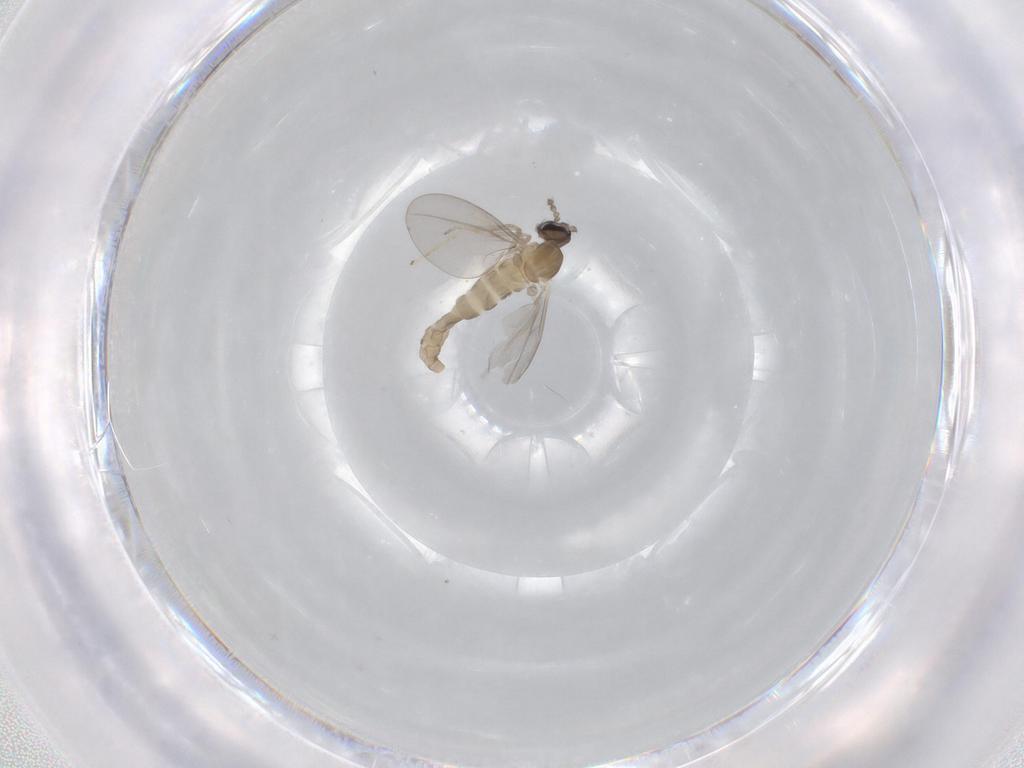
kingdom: Animalia
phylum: Arthropoda
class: Insecta
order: Diptera
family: Cecidomyiidae
